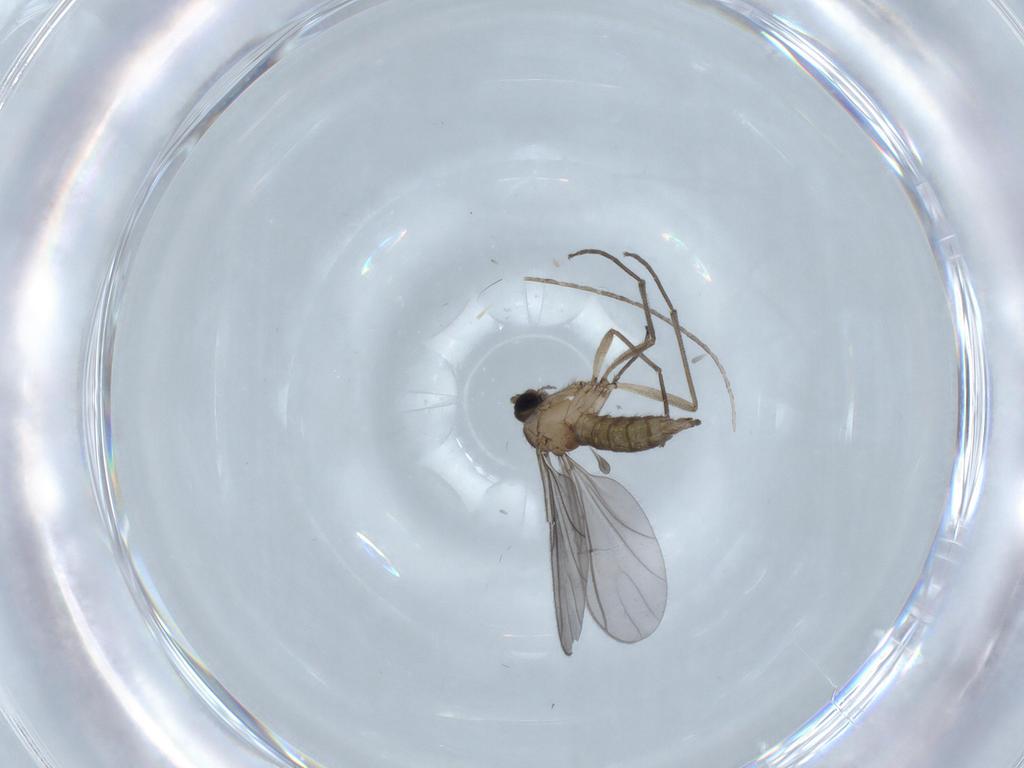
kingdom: Animalia
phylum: Arthropoda
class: Insecta
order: Diptera
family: Sciaridae
